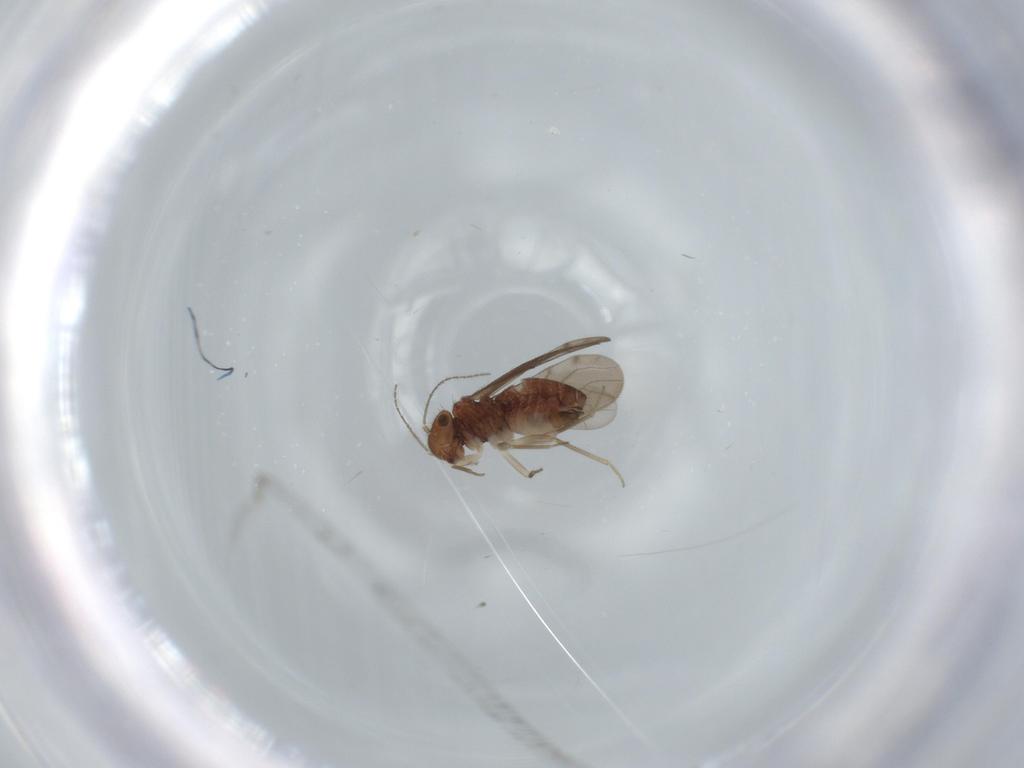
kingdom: Animalia
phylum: Arthropoda
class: Insecta
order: Psocodea
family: Ectopsocidae
